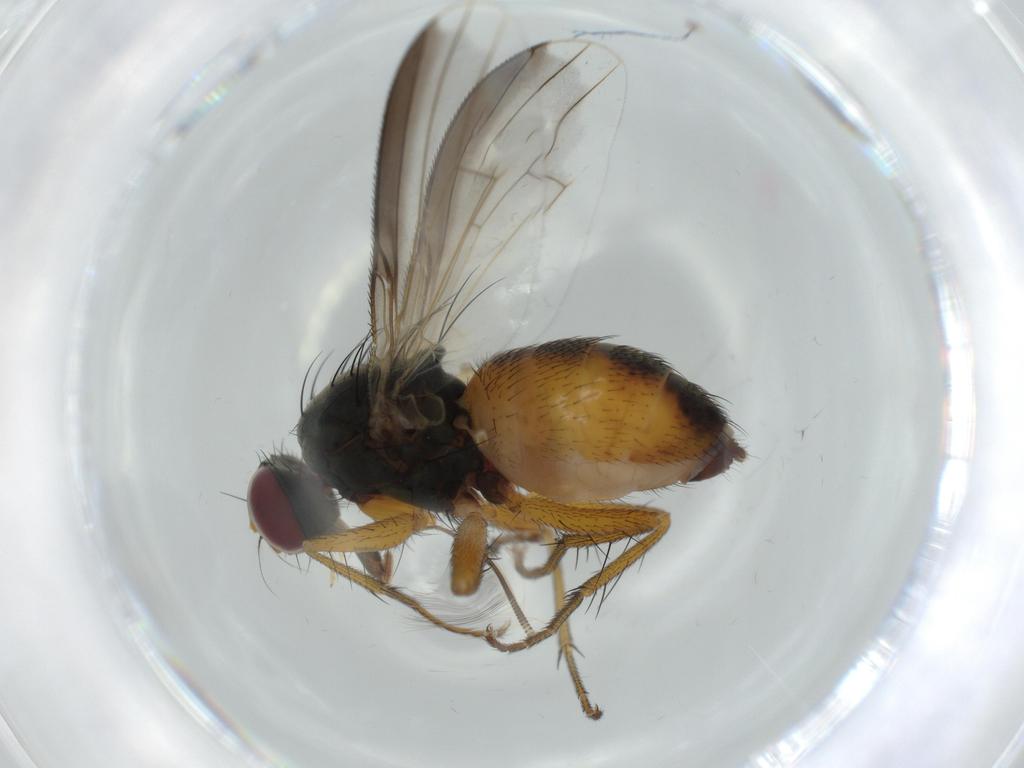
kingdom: Animalia
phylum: Arthropoda
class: Insecta
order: Diptera
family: Chironomidae
